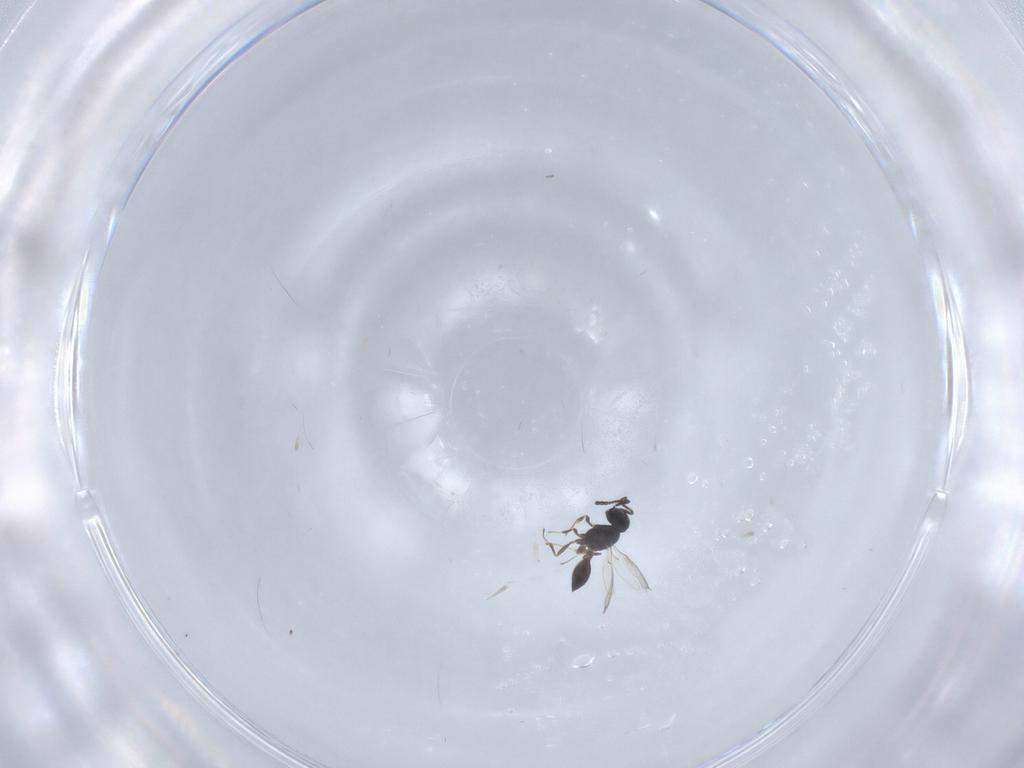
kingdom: Animalia
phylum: Arthropoda
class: Insecta
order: Hymenoptera
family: Scelionidae
